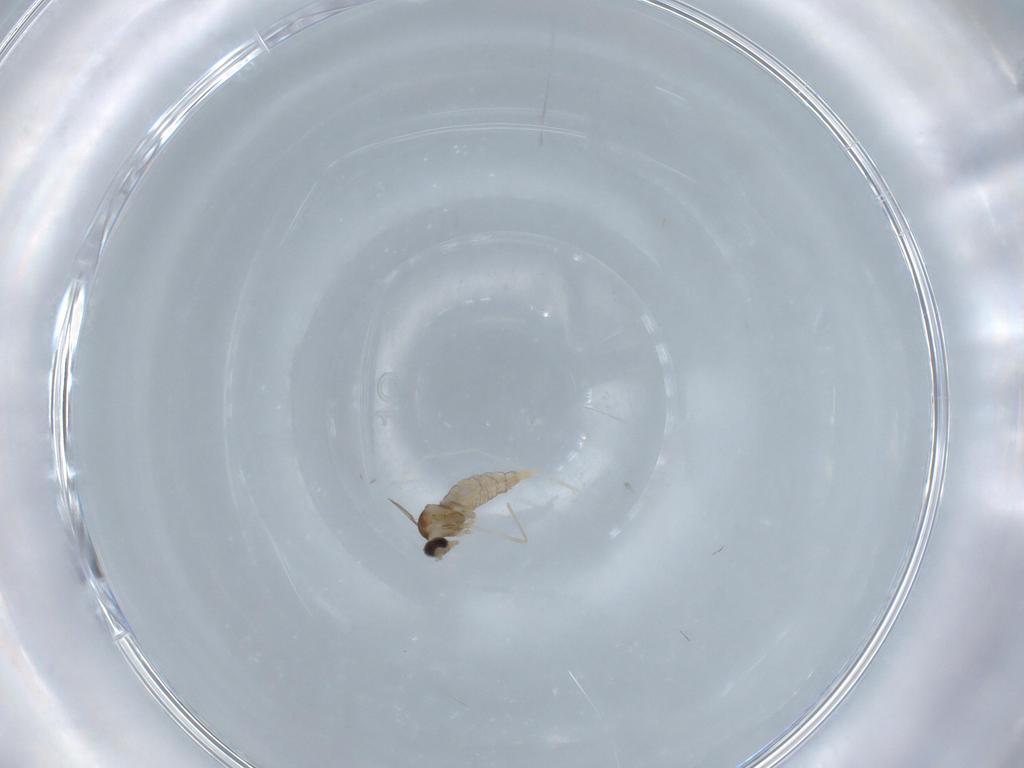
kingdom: Animalia
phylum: Arthropoda
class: Insecta
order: Diptera
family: Cecidomyiidae
